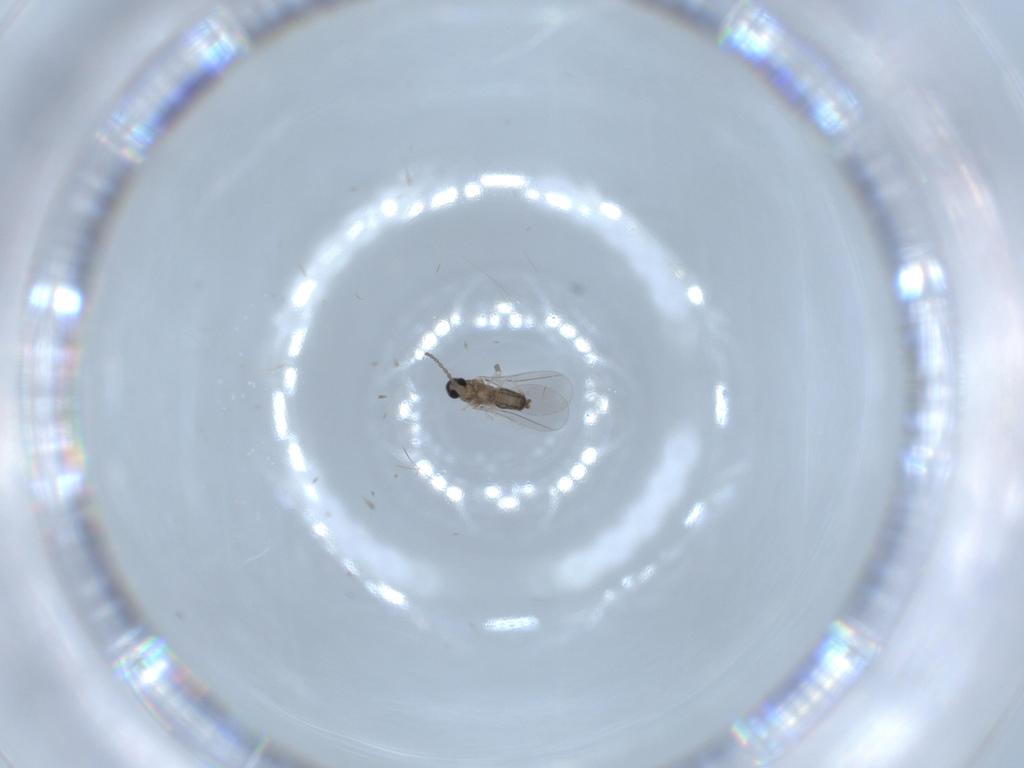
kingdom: Animalia
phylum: Arthropoda
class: Insecta
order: Diptera
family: Cecidomyiidae
